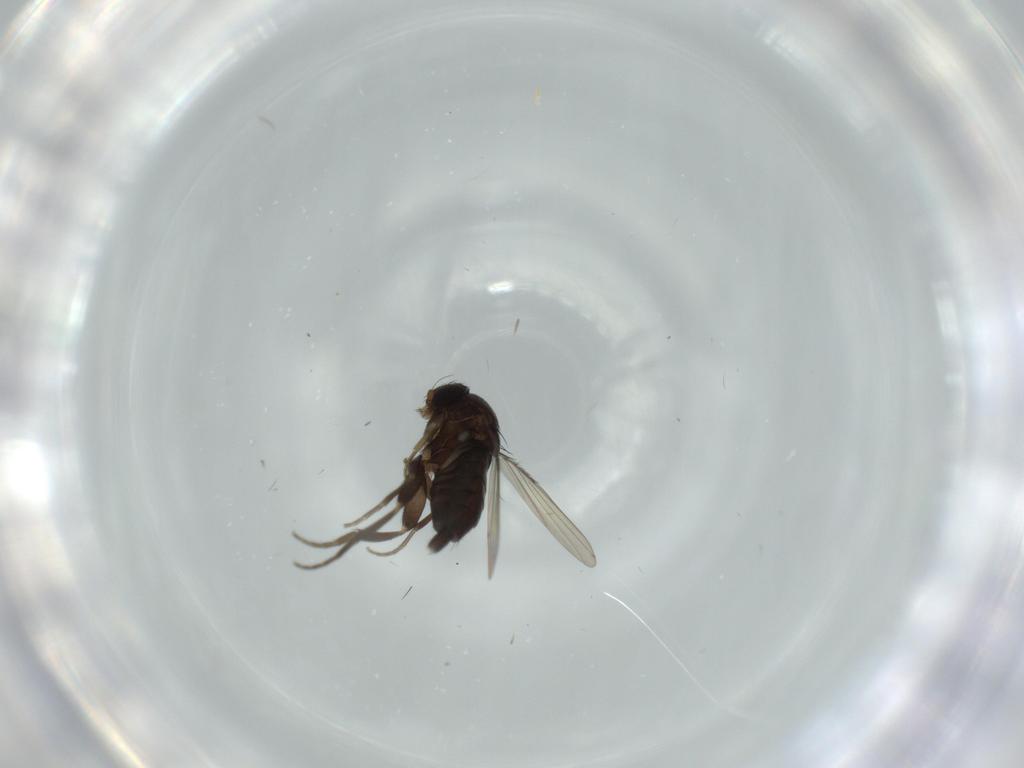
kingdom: Animalia
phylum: Arthropoda
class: Insecta
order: Diptera
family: Phoridae
